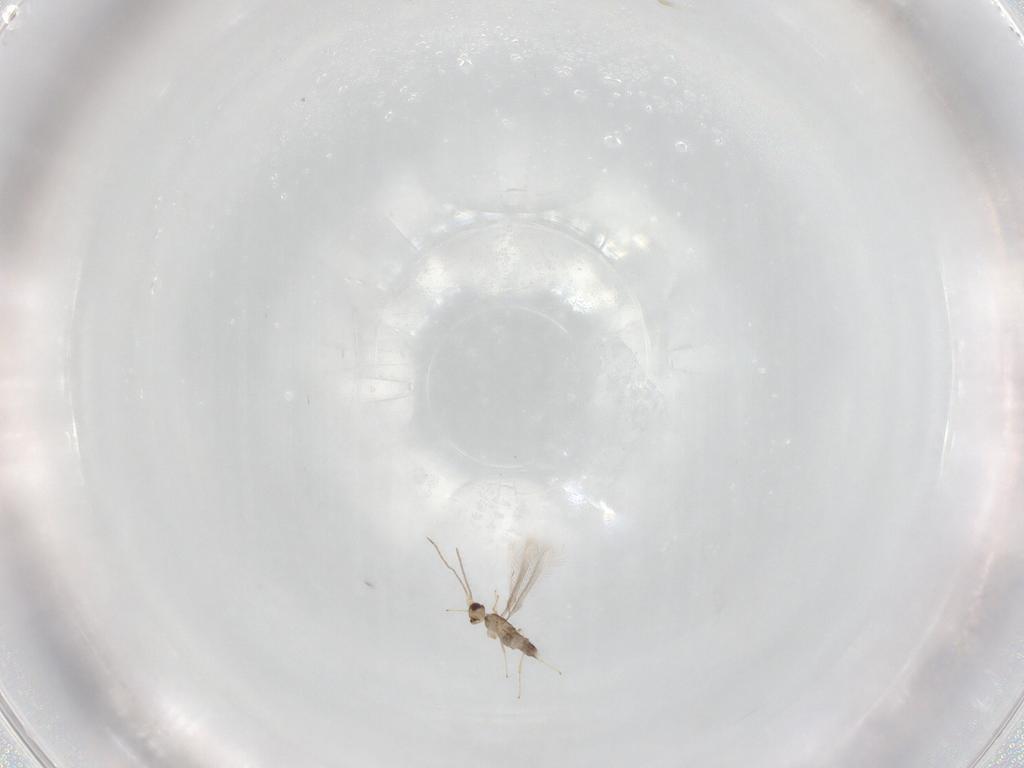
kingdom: Animalia
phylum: Arthropoda
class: Insecta
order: Hymenoptera
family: Mymaridae
